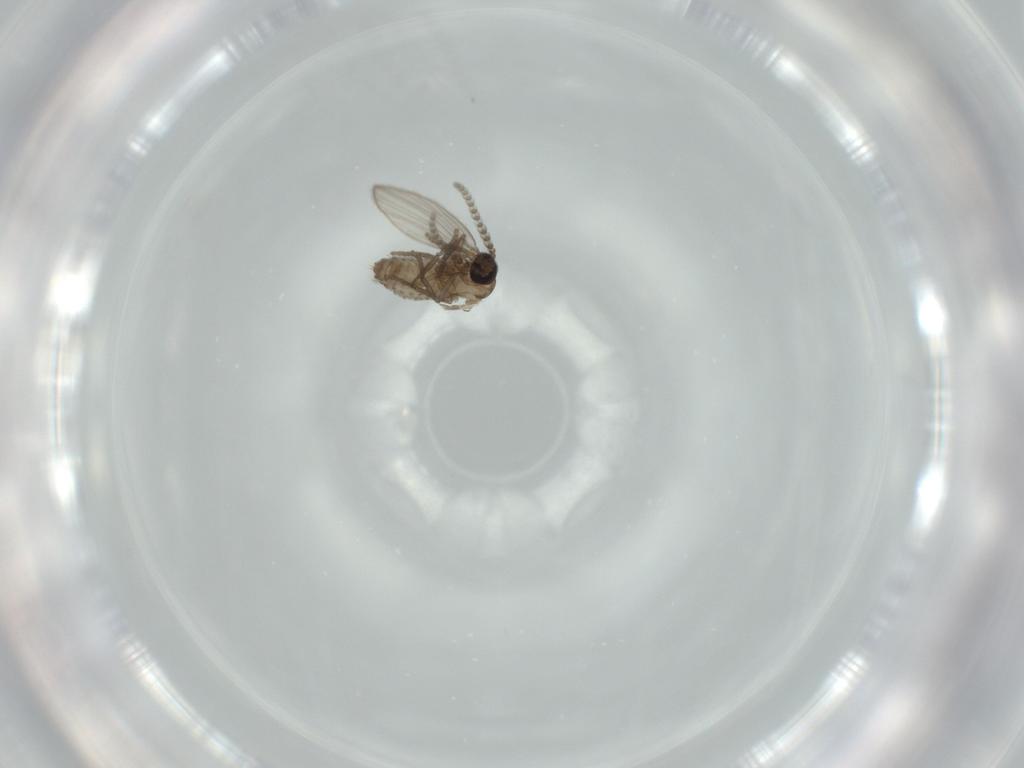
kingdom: Animalia
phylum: Arthropoda
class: Insecta
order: Diptera
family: Psychodidae
